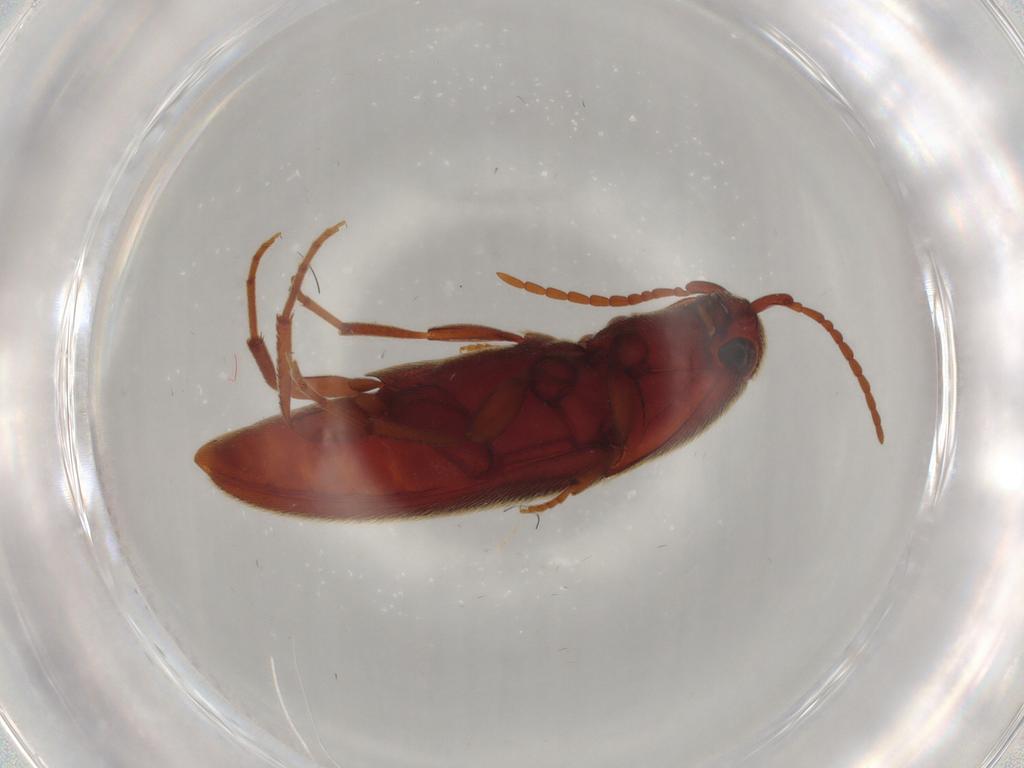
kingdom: Animalia
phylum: Arthropoda
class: Insecta
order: Coleoptera
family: Eucnemidae
